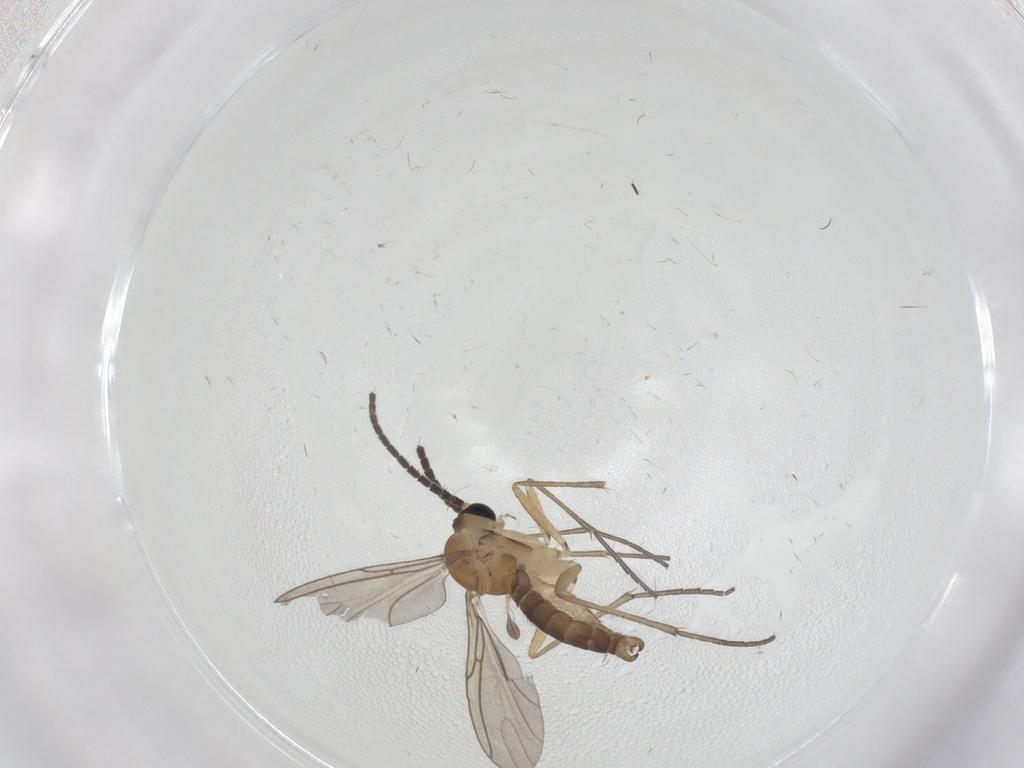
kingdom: Animalia
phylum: Arthropoda
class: Insecta
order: Diptera
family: Sciaridae
